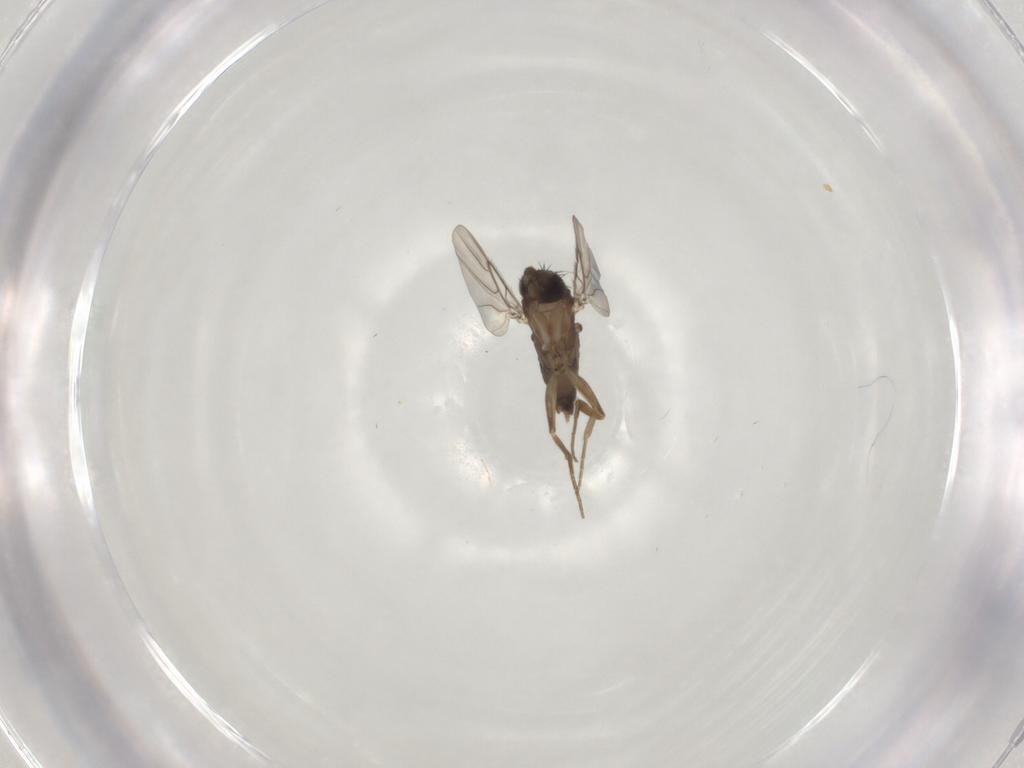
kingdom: Animalia
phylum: Arthropoda
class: Insecta
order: Diptera
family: Phoridae
